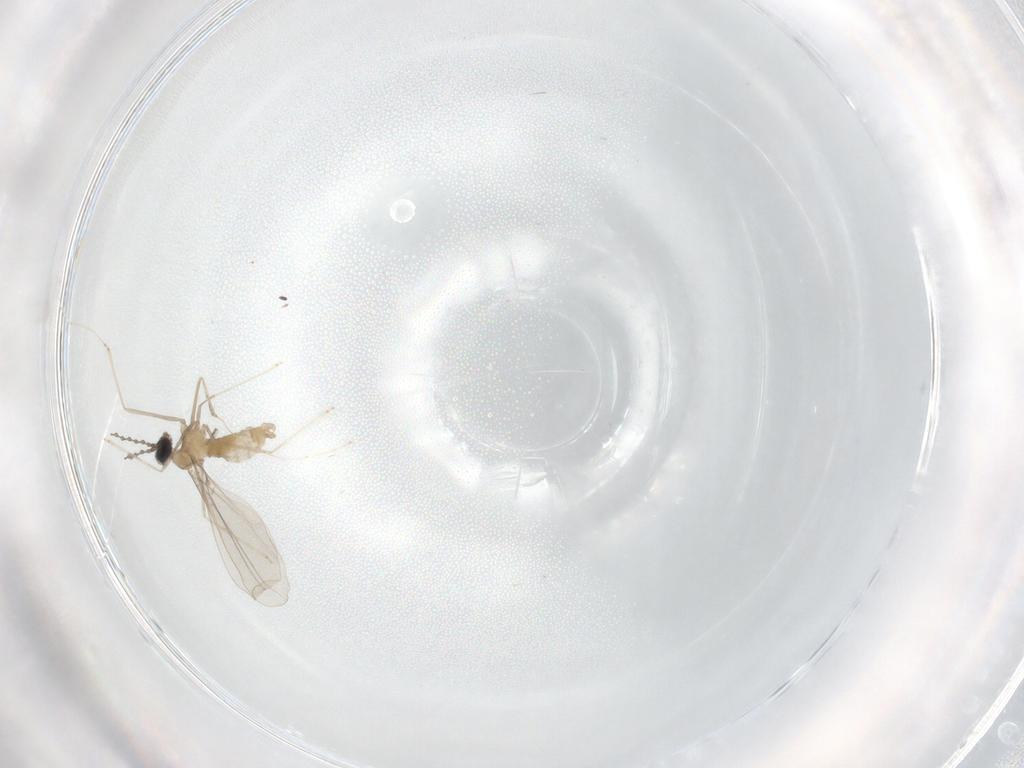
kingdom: Animalia
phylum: Arthropoda
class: Insecta
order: Diptera
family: Cecidomyiidae
